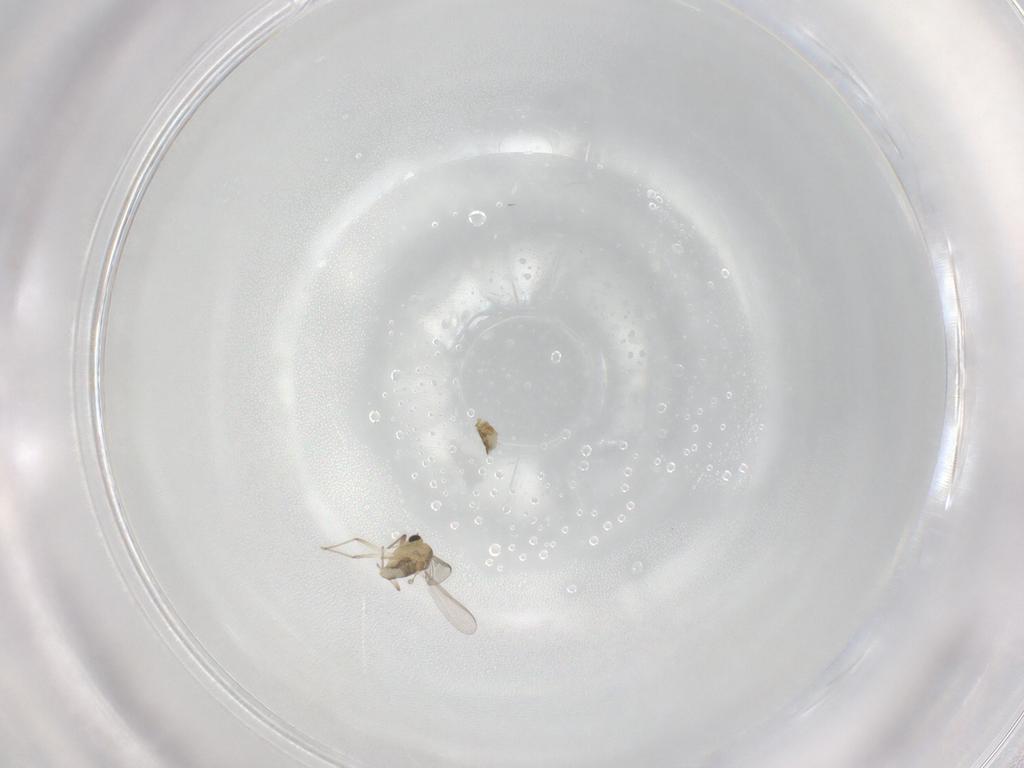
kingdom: Animalia
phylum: Arthropoda
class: Insecta
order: Diptera
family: Chironomidae
